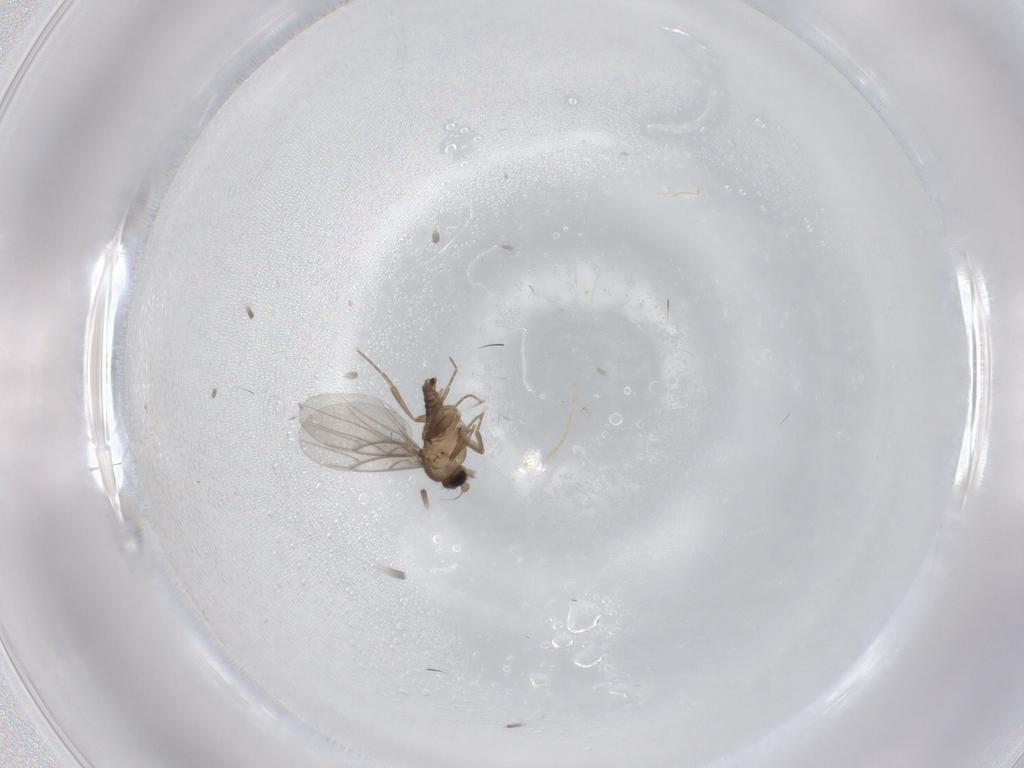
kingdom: Animalia
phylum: Arthropoda
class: Insecta
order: Diptera
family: Chironomidae
